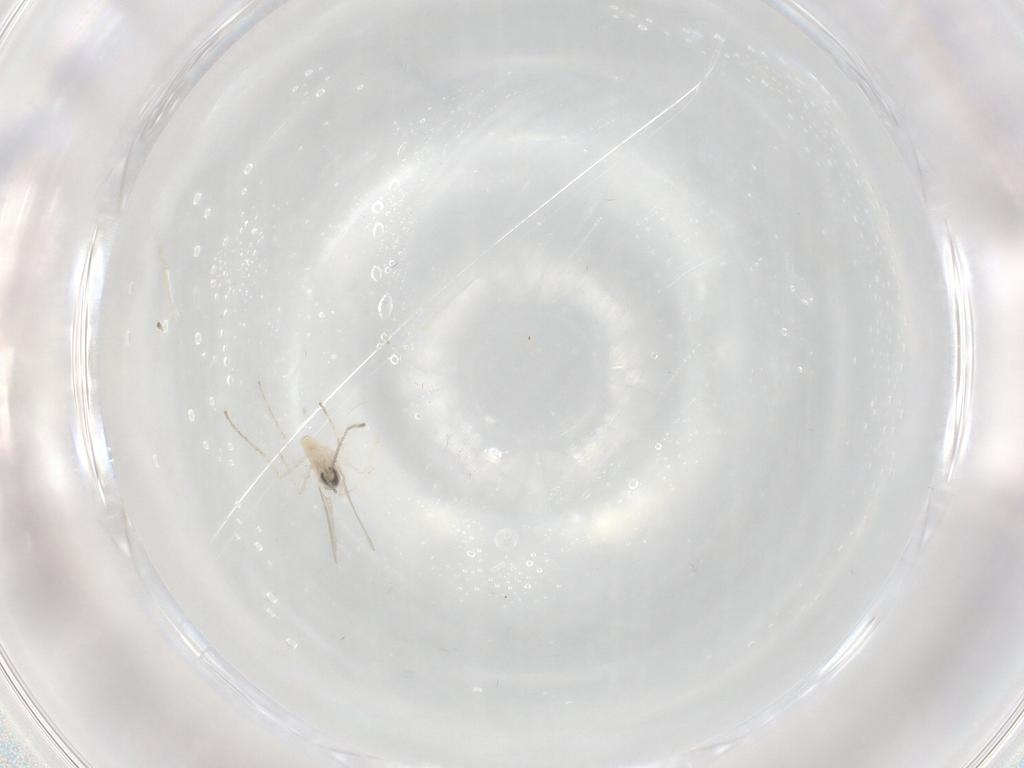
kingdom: Animalia
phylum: Arthropoda
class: Insecta
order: Diptera
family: Cecidomyiidae
